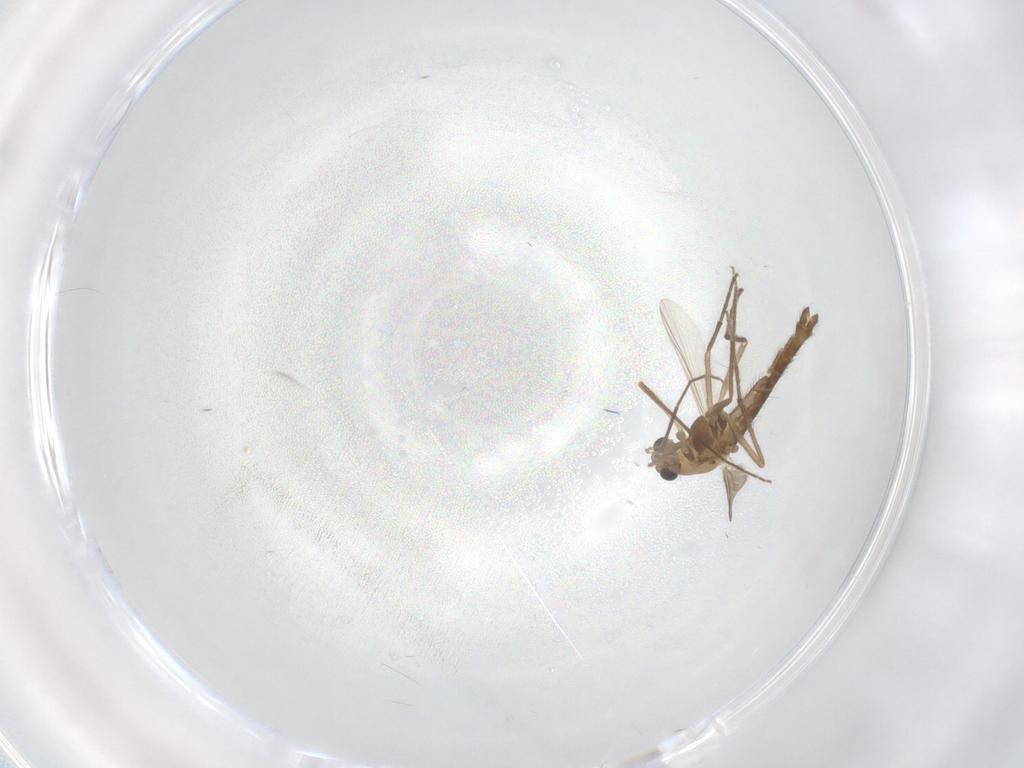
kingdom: Animalia
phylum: Arthropoda
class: Insecta
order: Diptera
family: Chironomidae
